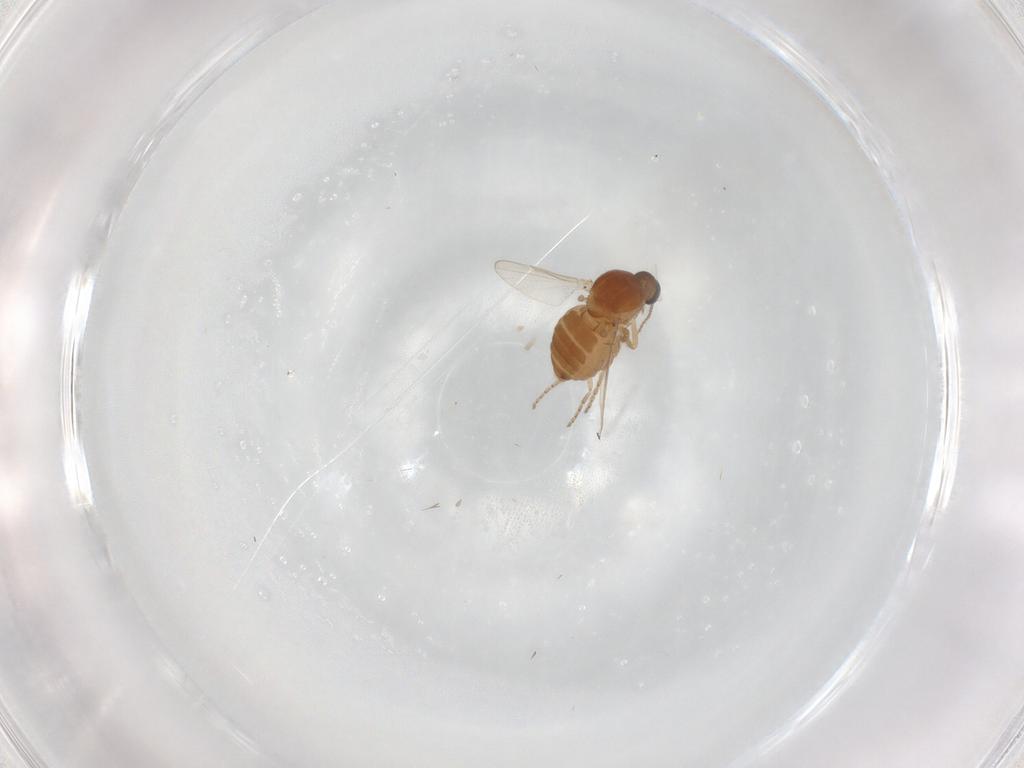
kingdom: Animalia
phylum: Arthropoda
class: Insecta
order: Diptera
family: Ceratopogonidae
